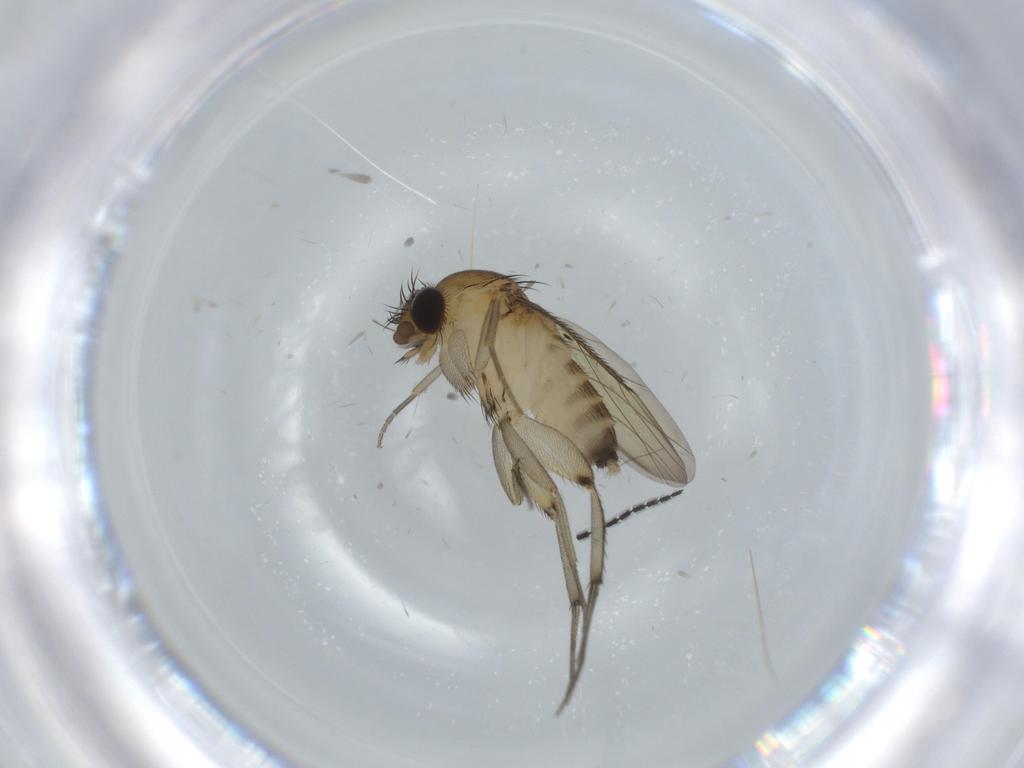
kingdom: Animalia
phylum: Arthropoda
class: Insecta
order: Diptera
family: Phoridae
